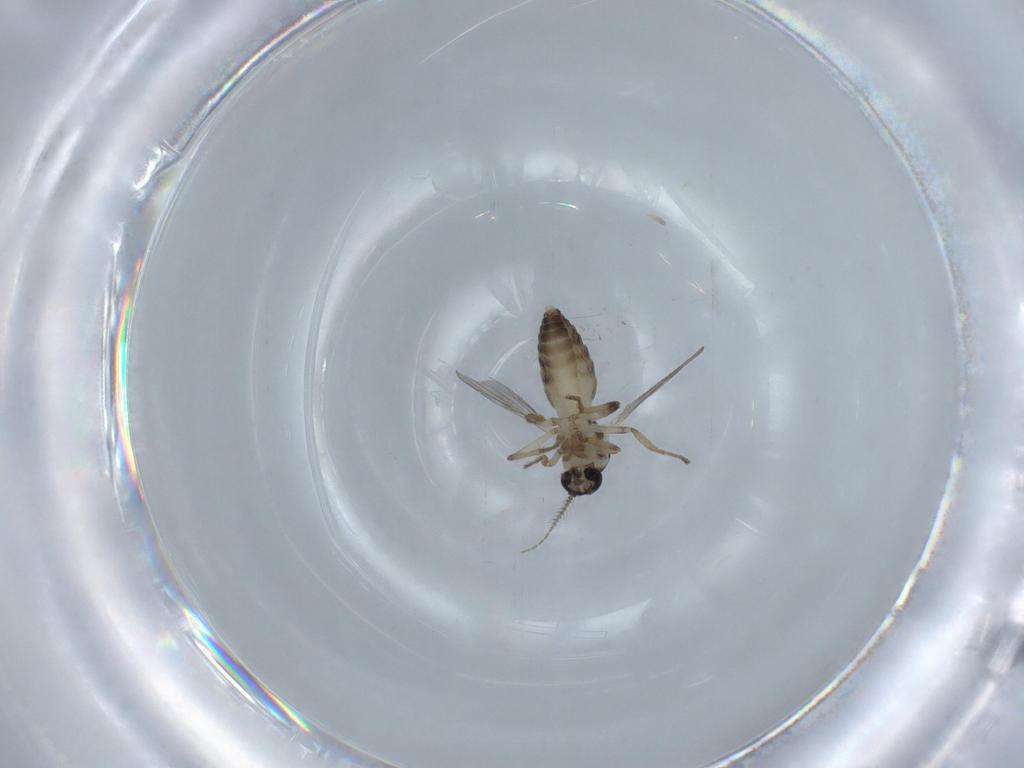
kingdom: Animalia
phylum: Arthropoda
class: Insecta
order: Diptera
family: Ceratopogonidae
